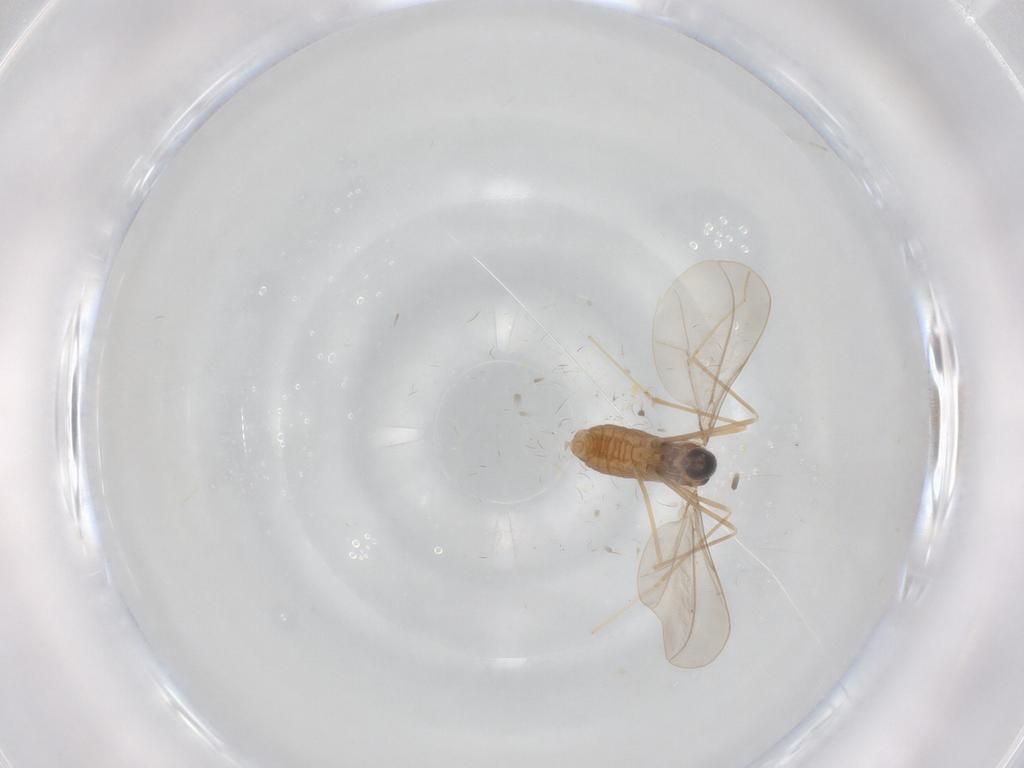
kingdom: Animalia
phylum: Arthropoda
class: Insecta
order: Diptera
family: Cecidomyiidae
